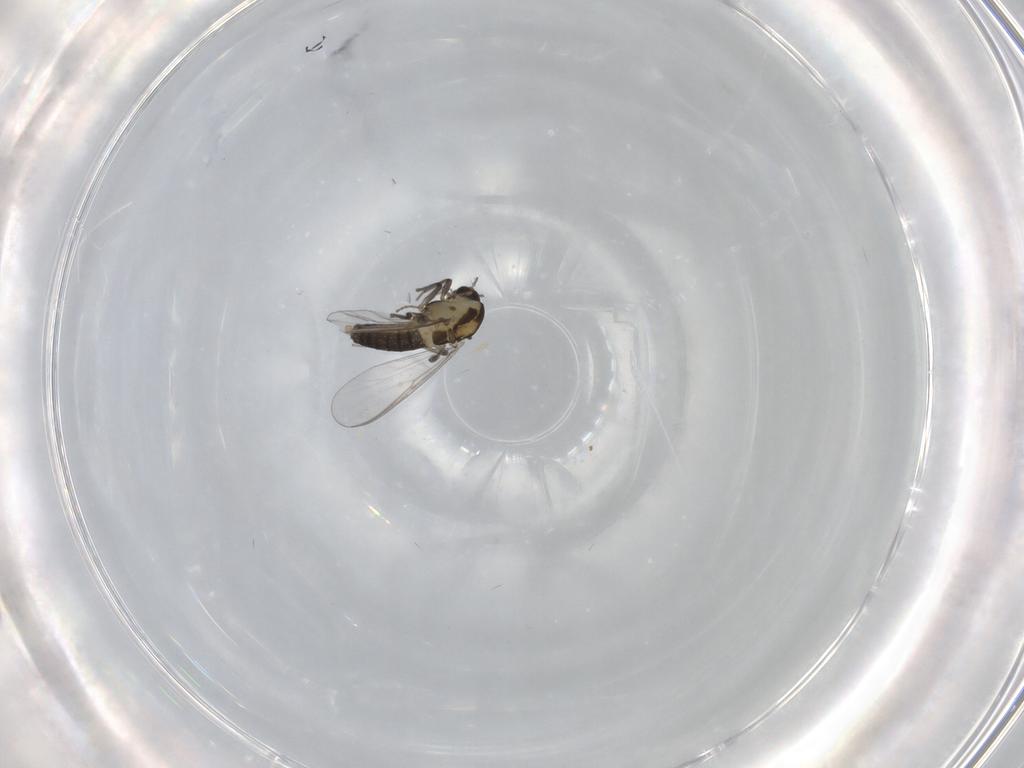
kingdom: Animalia
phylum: Arthropoda
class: Insecta
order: Diptera
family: Chironomidae
